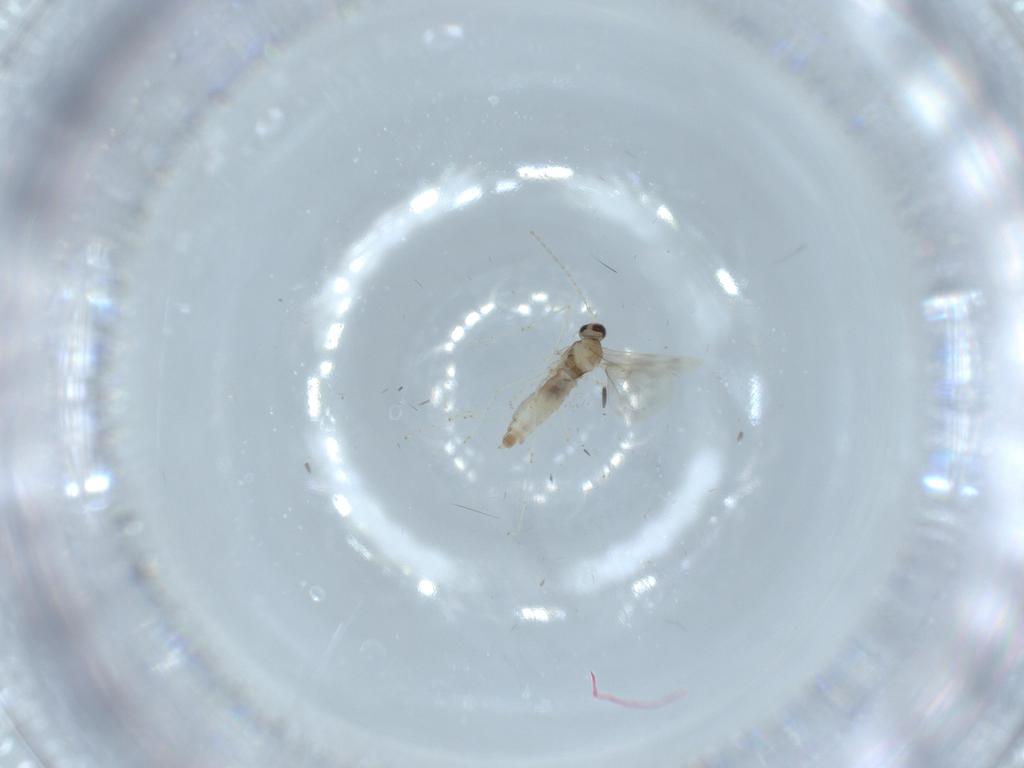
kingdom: Animalia
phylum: Arthropoda
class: Insecta
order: Diptera
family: Cecidomyiidae
